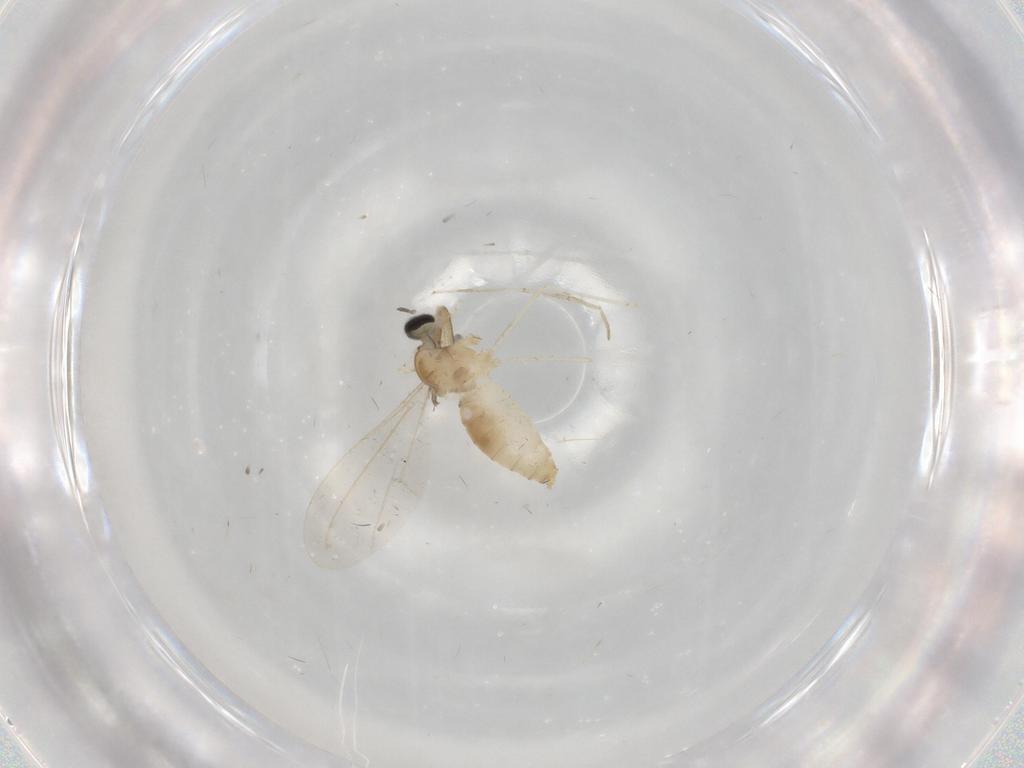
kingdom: Animalia
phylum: Arthropoda
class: Insecta
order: Diptera
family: Cecidomyiidae
